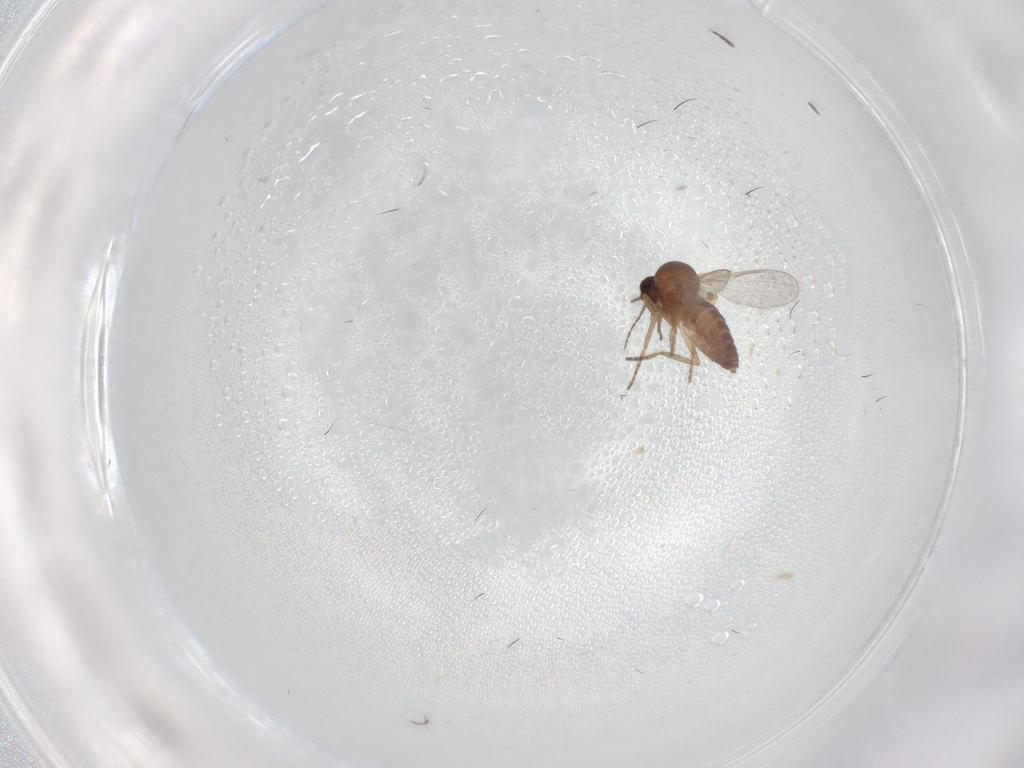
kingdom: Animalia
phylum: Arthropoda
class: Insecta
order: Diptera
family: Ceratopogonidae
